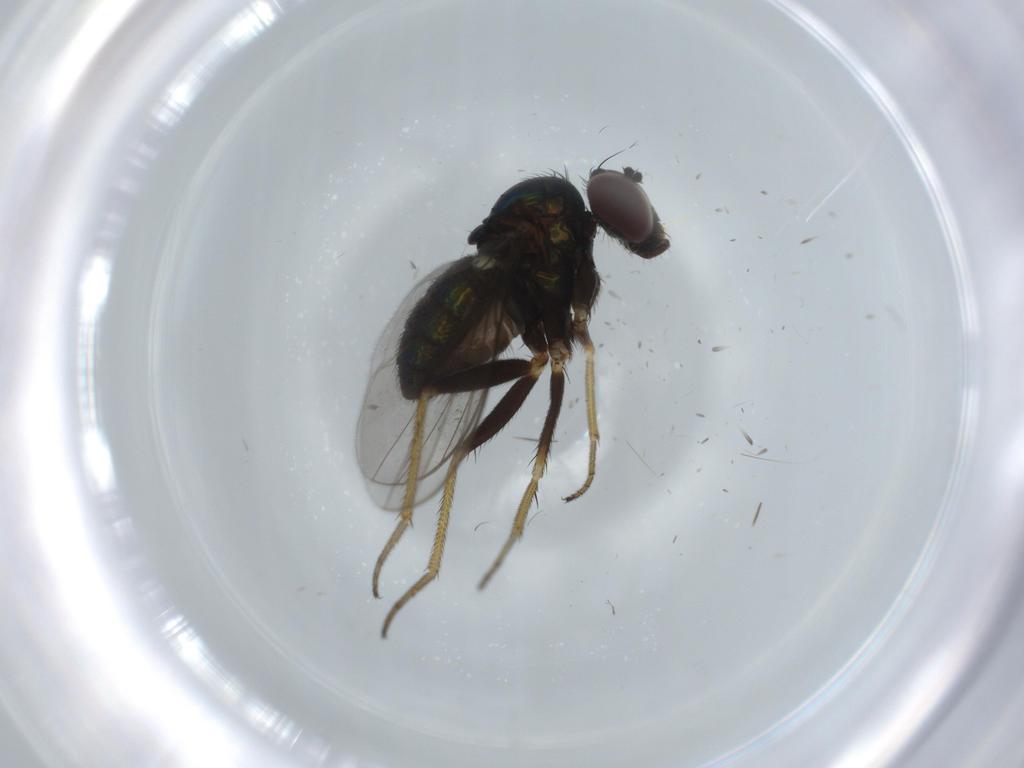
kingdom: Animalia
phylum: Arthropoda
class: Insecta
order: Diptera
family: Dolichopodidae
